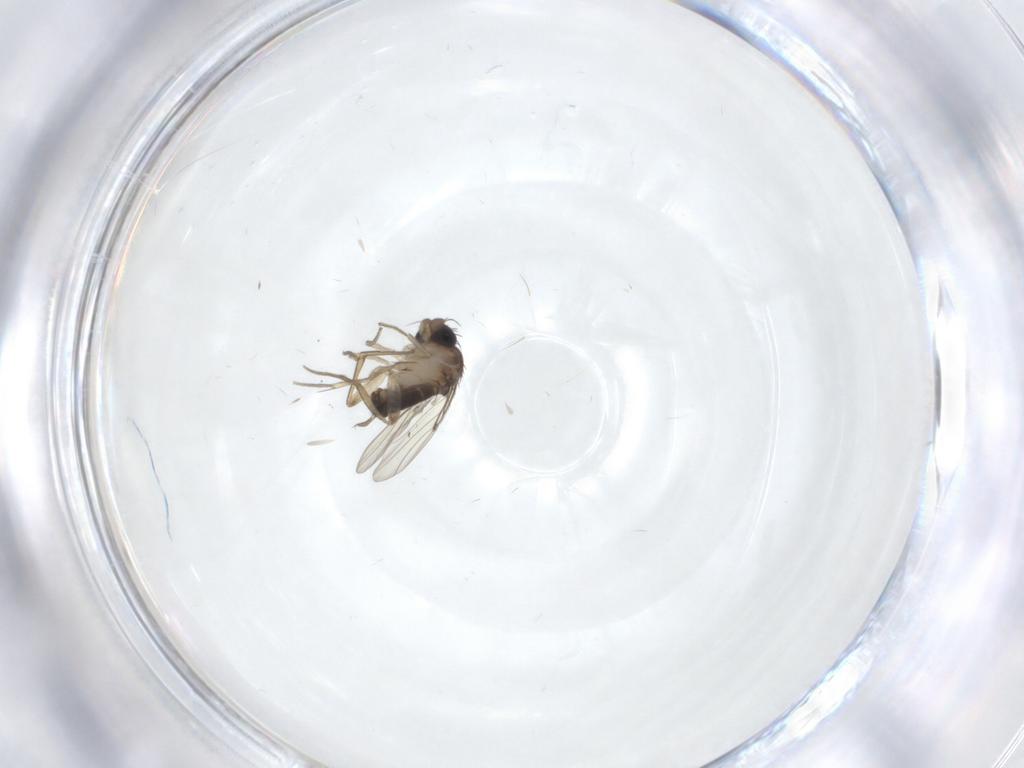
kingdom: Animalia
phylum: Arthropoda
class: Insecta
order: Diptera
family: Sciaridae
